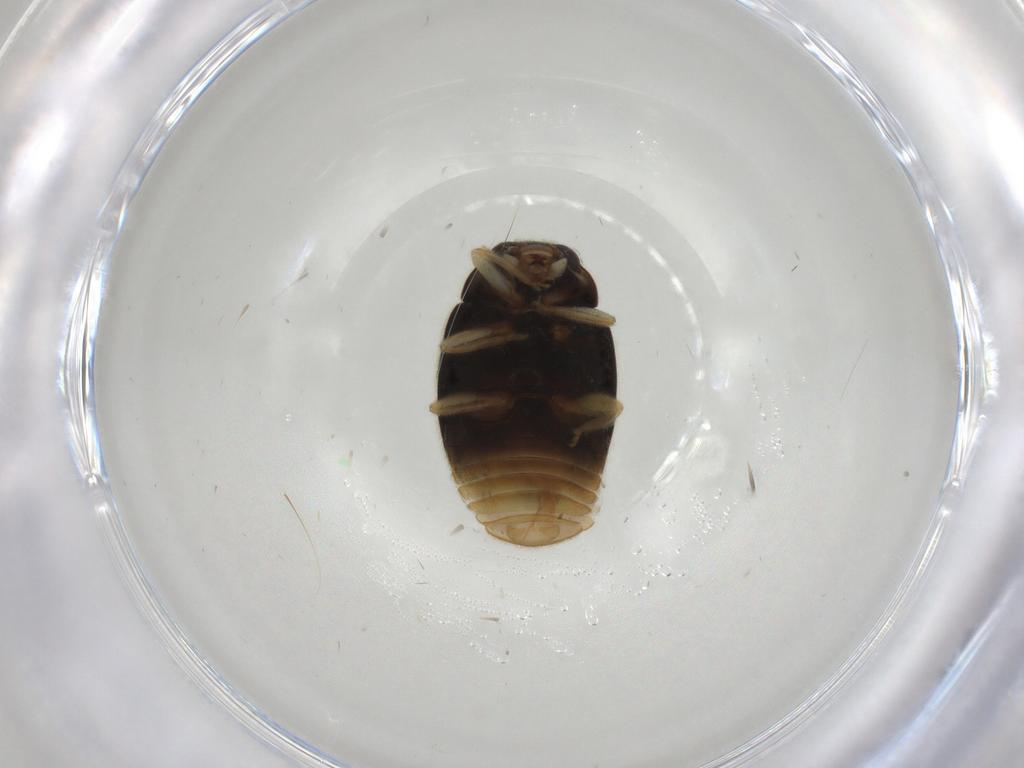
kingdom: Animalia
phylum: Arthropoda
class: Insecta
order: Coleoptera
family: Coccinellidae
